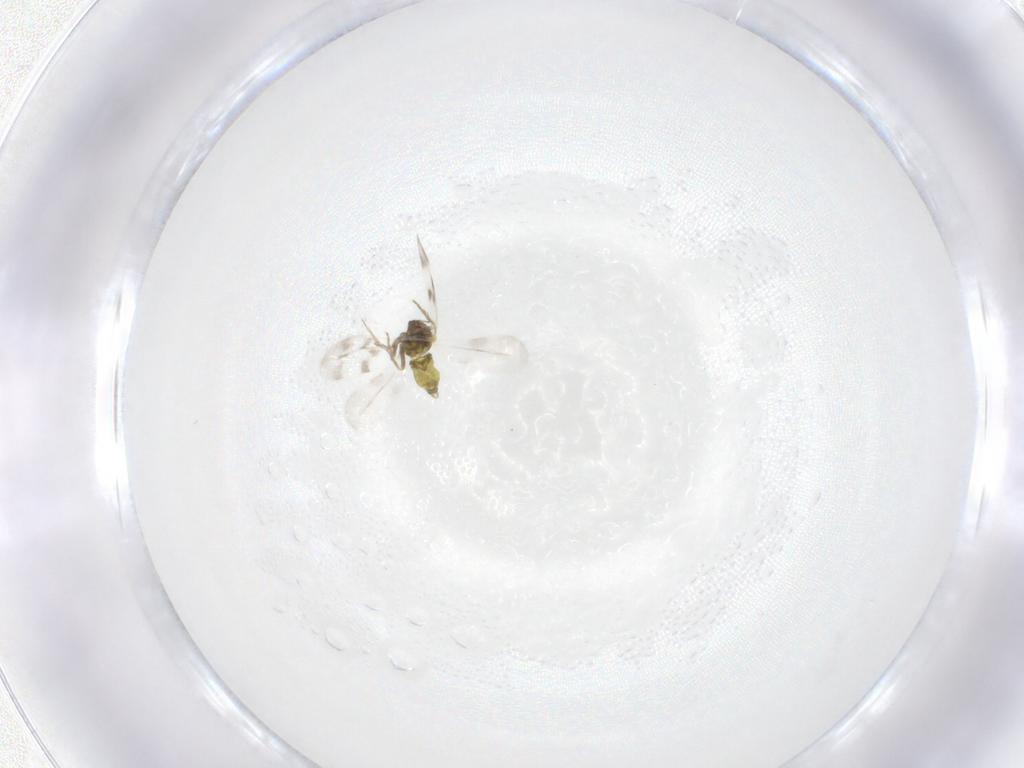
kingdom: Animalia
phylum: Arthropoda
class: Insecta
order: Hemiptera
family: Aleyrodidae
